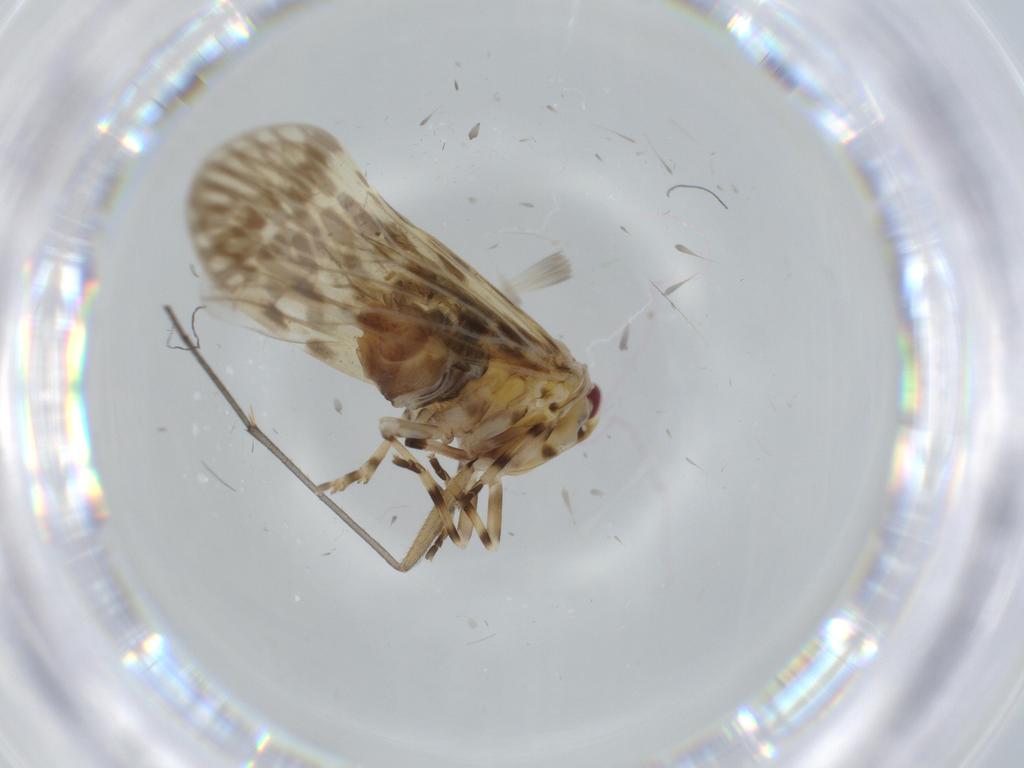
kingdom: Animalia
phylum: Arthropoda
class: Insecta
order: Hemiptera
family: Derbidae
